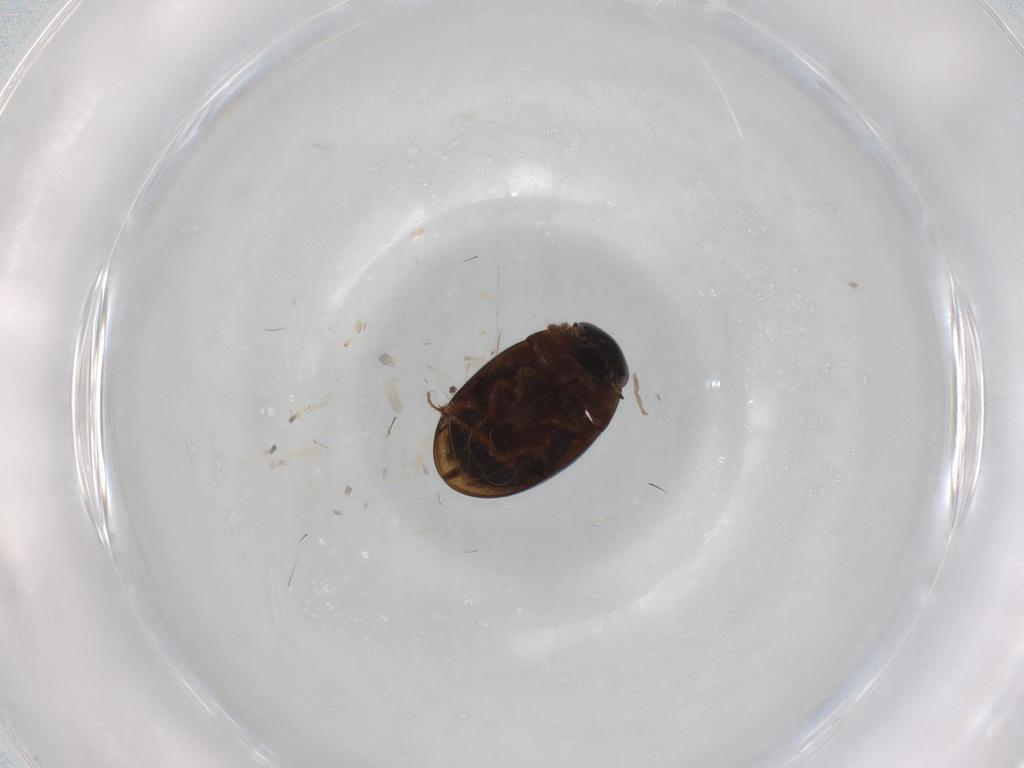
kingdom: Animalia
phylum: Arthropoda
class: Insecta
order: Coleoptera
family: Hydrophilidae
